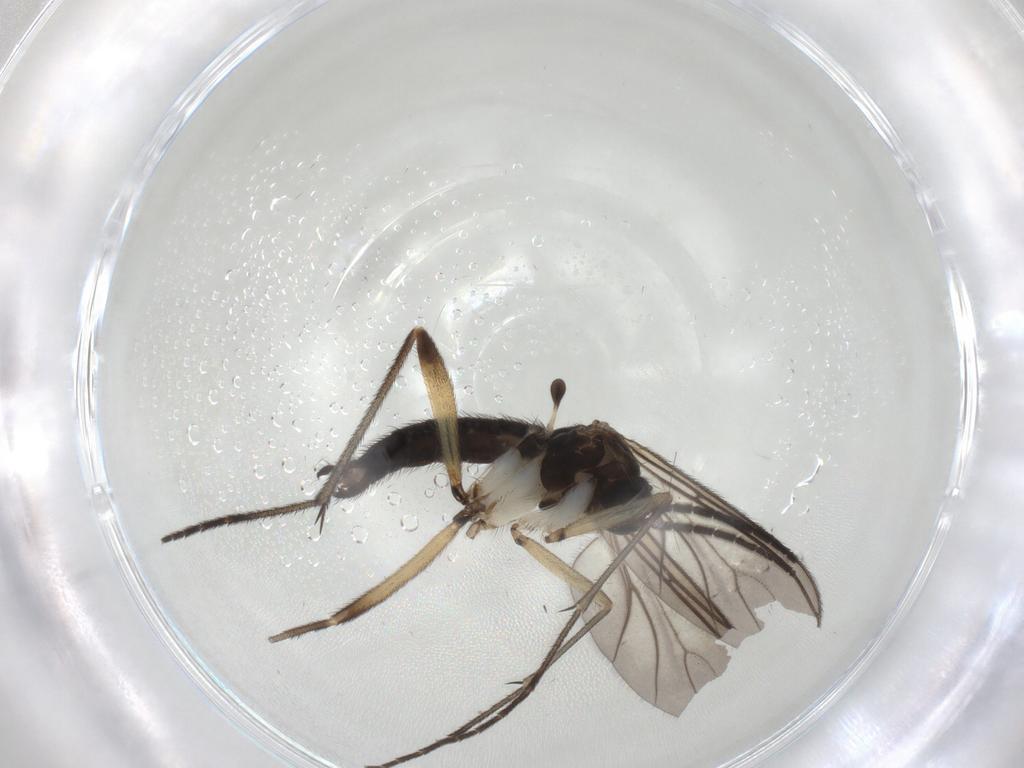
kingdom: Animalia
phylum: Arthropoda
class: Insecta
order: Diptera
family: Sciaridae
